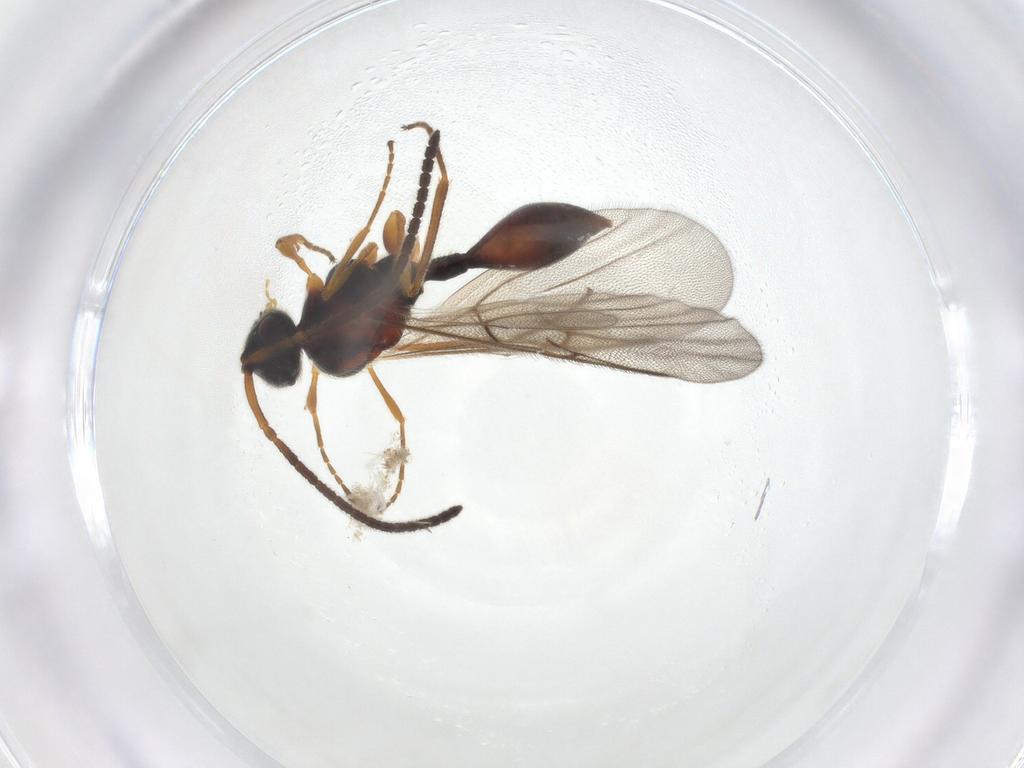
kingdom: Animalia
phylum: Arthropoda
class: Insecta
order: Hymenoptera
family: Diapriidae
